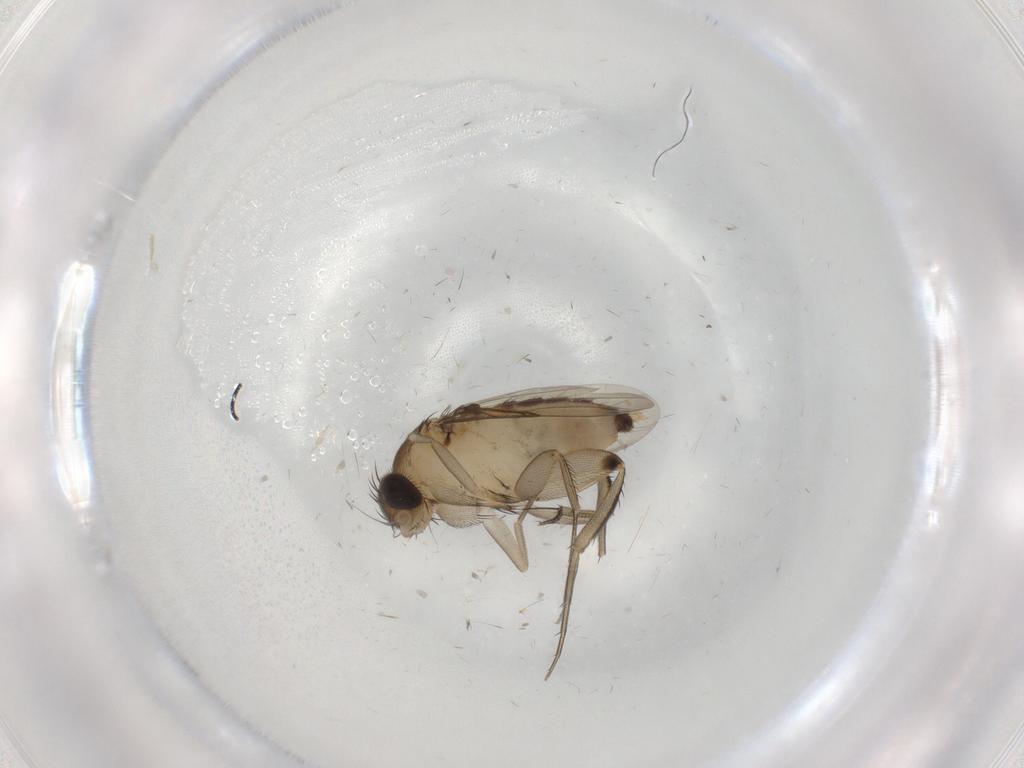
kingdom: Animalia
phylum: Arthropoda
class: Insecta
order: Diptera
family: Phoridae
